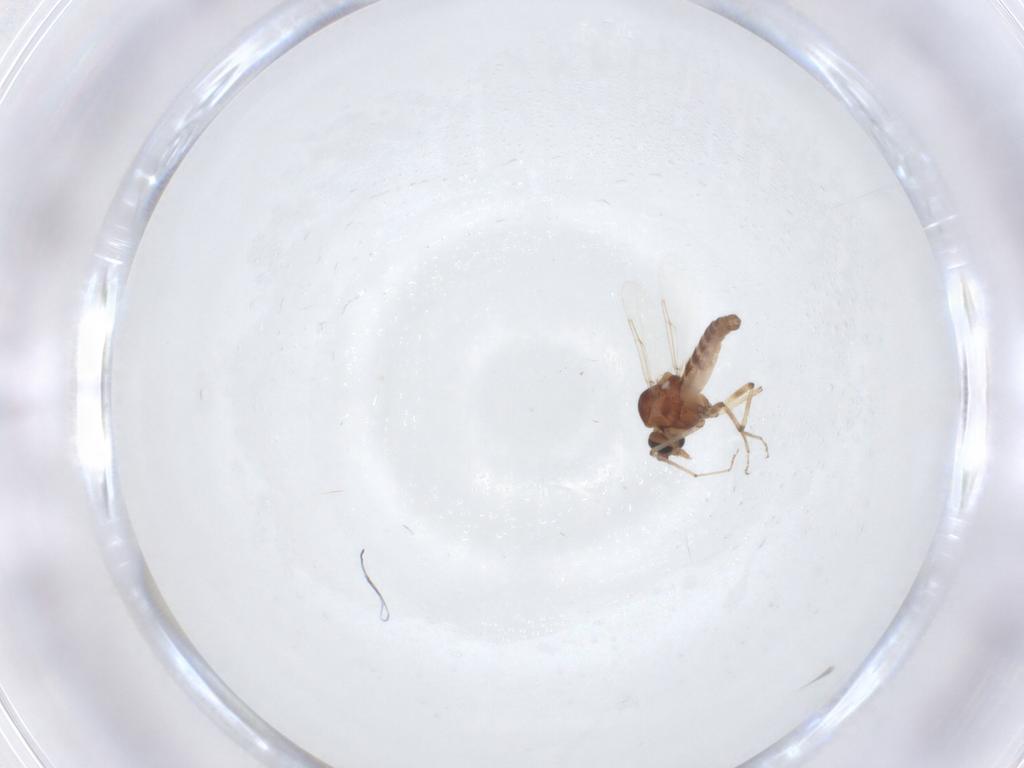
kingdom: Animalia
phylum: Arthropoda
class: Insecta
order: Diptera
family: Ceratopogonidae
